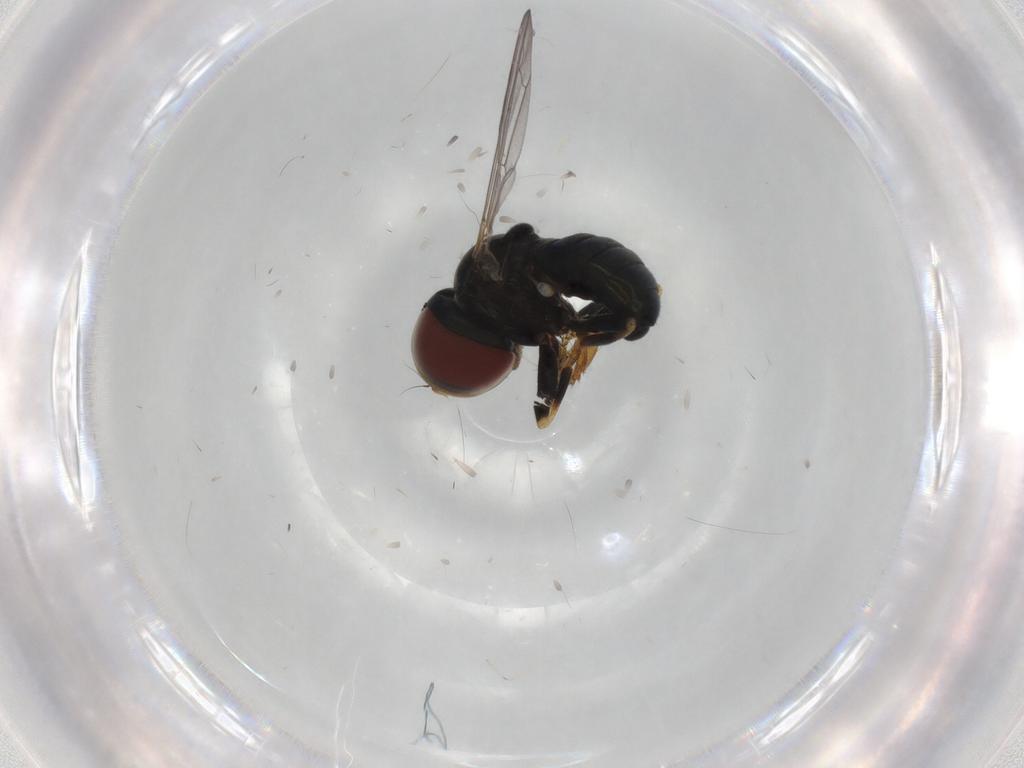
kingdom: Animalia
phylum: Arthropoda
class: Insecta
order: Diptera
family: Pipunculidae
